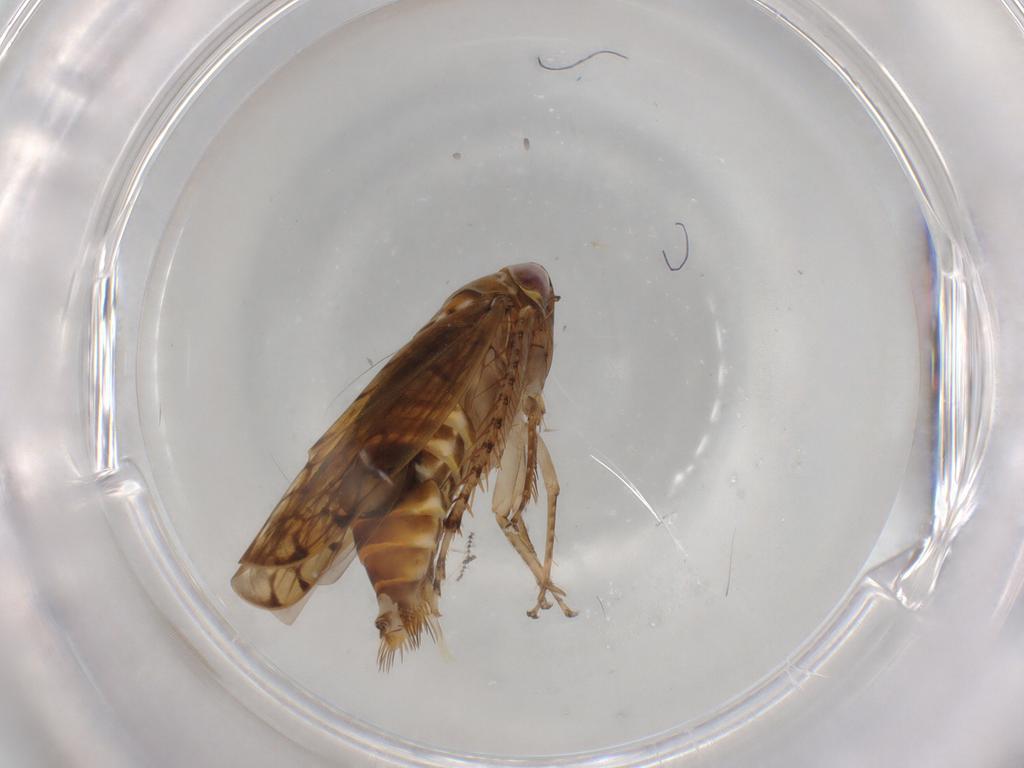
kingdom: Animalia
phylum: Arthropoda
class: Insecta
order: Hemiptera
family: Cicadellidae
